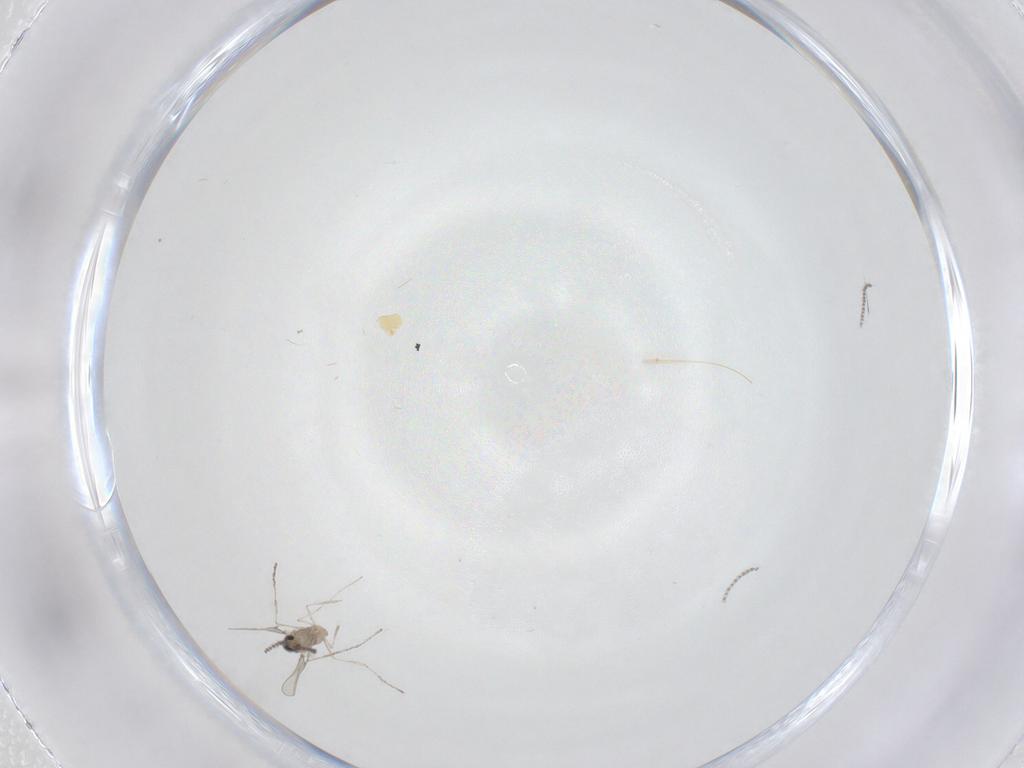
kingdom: Animalia
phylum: Arthropoda
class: Insecta
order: Diptera
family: Cecidomyiidae
